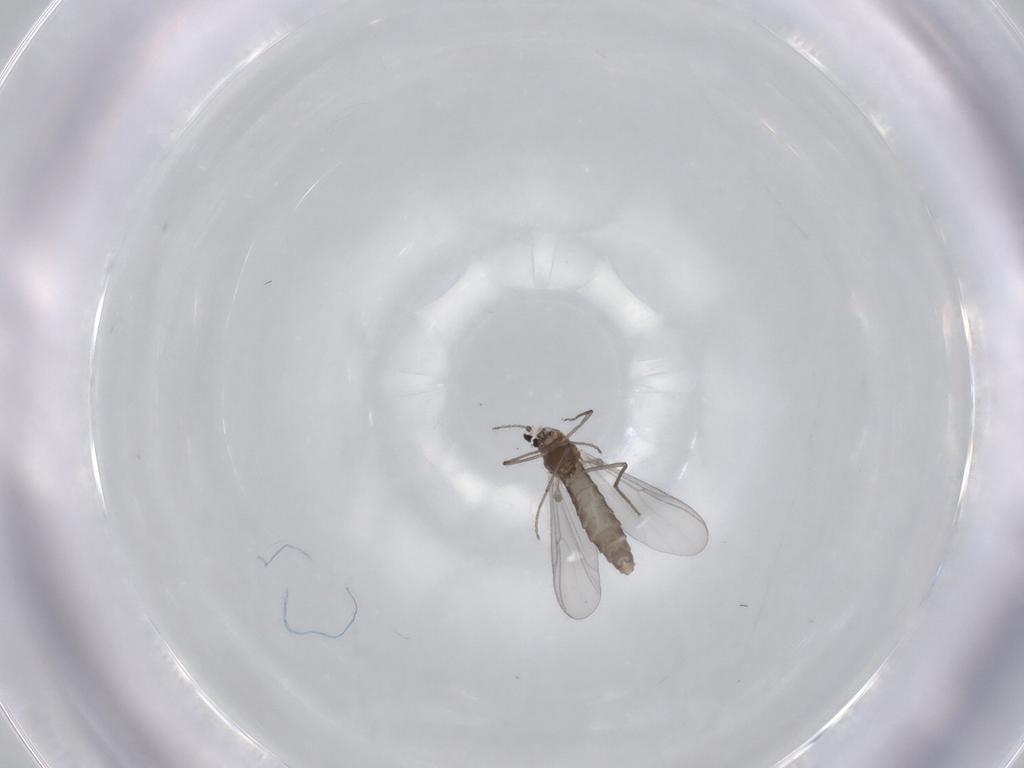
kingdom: Animalia
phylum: Arthropoda
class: Insecta
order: Diptera
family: Chironomidae
